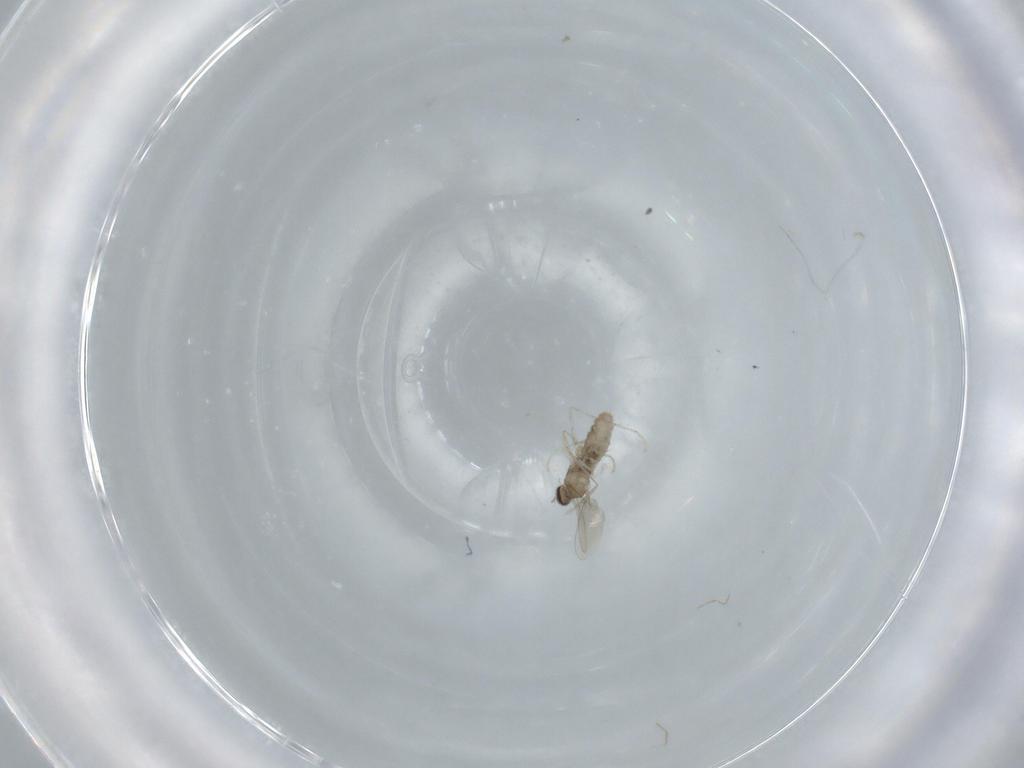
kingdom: Animalia
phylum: Arthropoda
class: Insecta
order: Diptera
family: Cecidomyiidae
